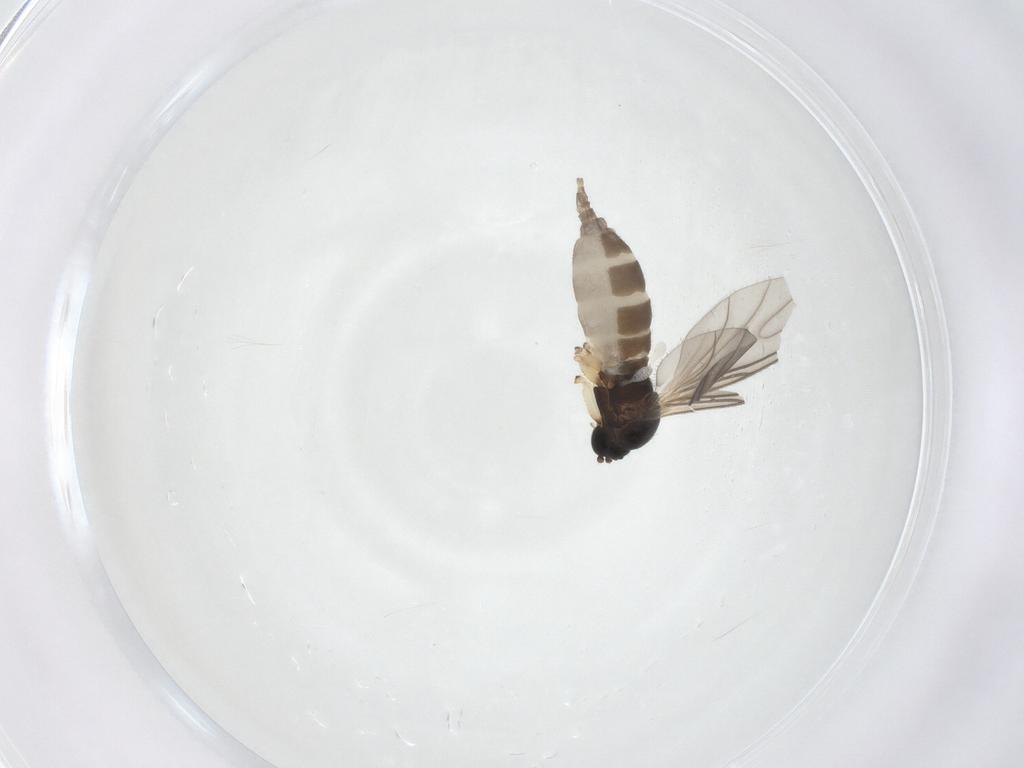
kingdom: Animalia
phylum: Arthropoda
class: Insecta
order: Diptera
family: Sciaridae
